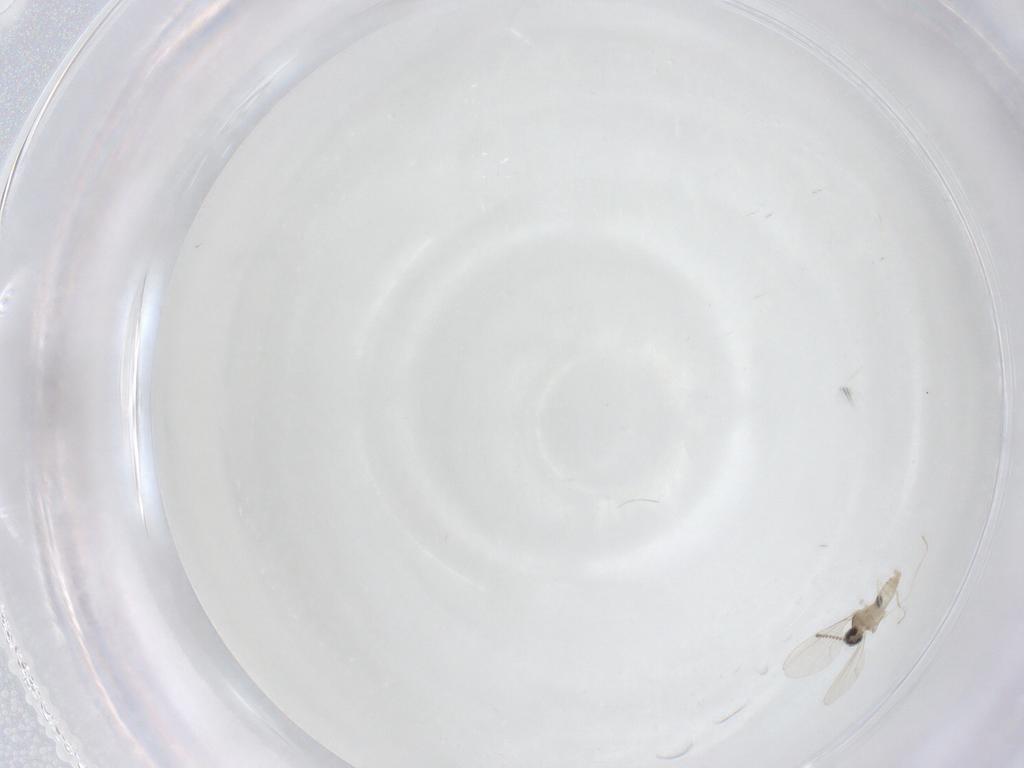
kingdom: Animalia
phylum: Arthropoda
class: Insecta
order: Diptera
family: Cecidomyiidae
